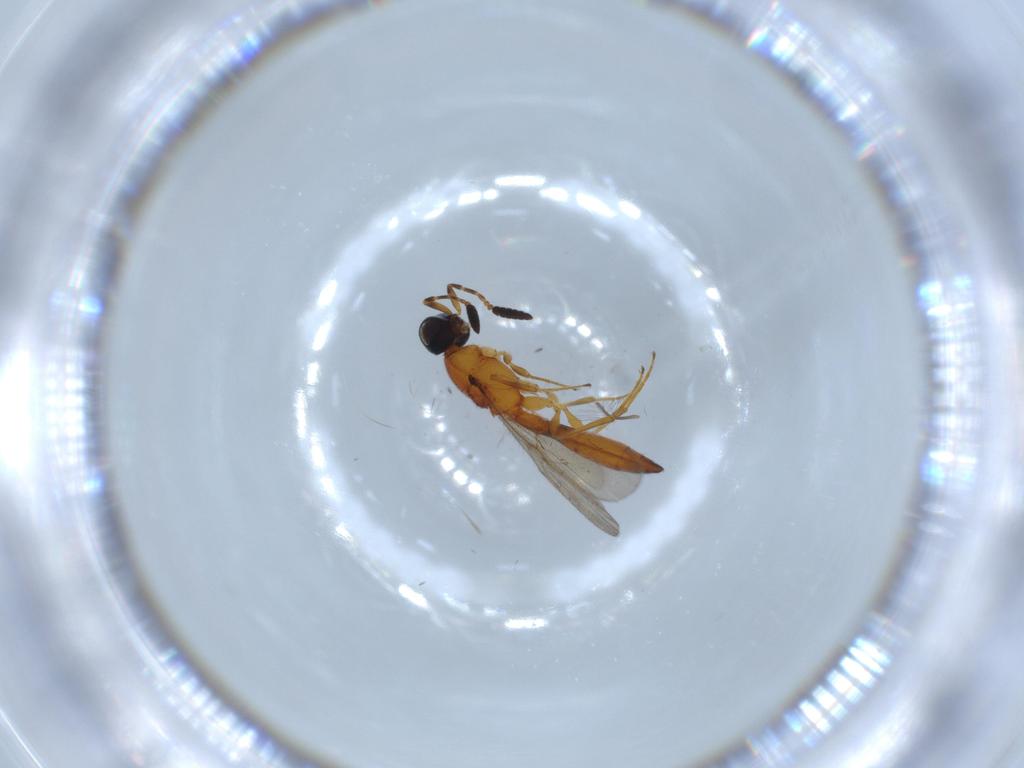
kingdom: Animalia
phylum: Arthropoda
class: Insecta
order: Hymenoptera
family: Scelionidae
